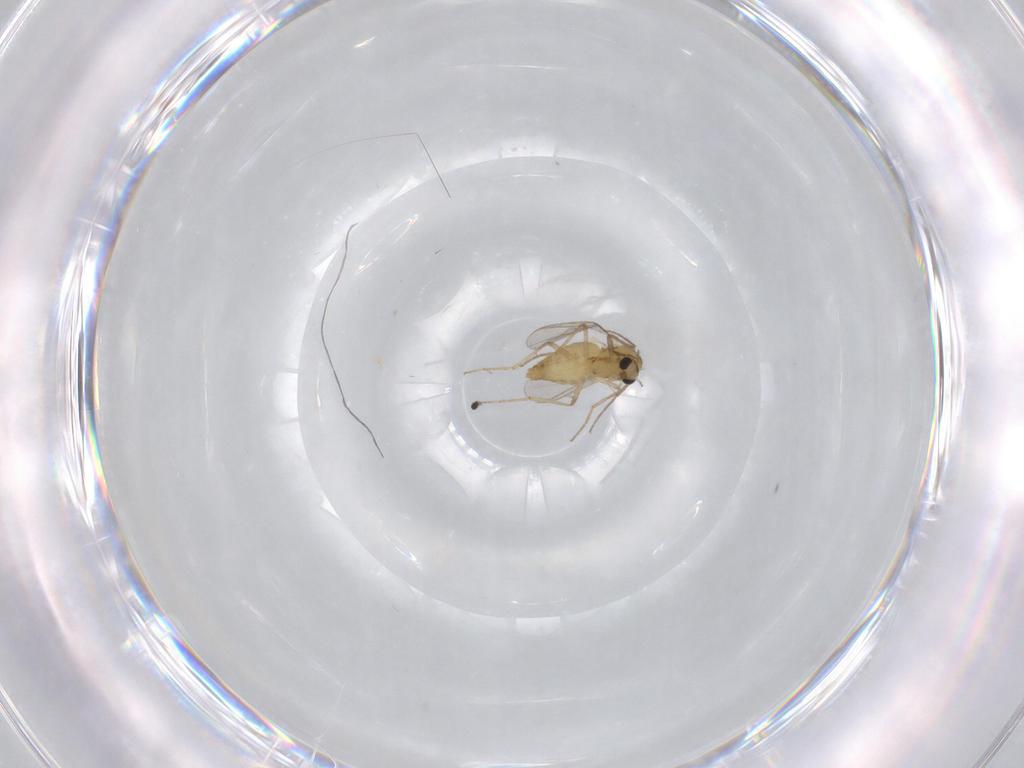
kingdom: Animalia
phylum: Arthropoda
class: Insecta
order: Diptera
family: Chironomidae
